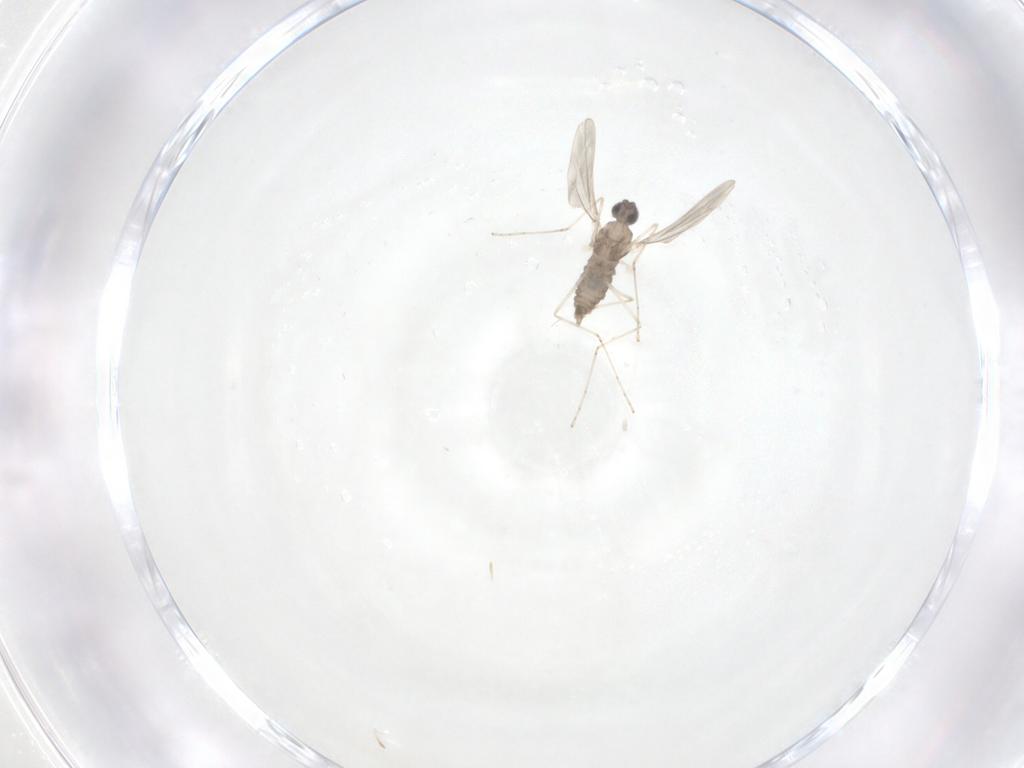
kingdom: Animalia
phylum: Arthropoda
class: Insecta
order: Diptera
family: Cecidomyiidae
